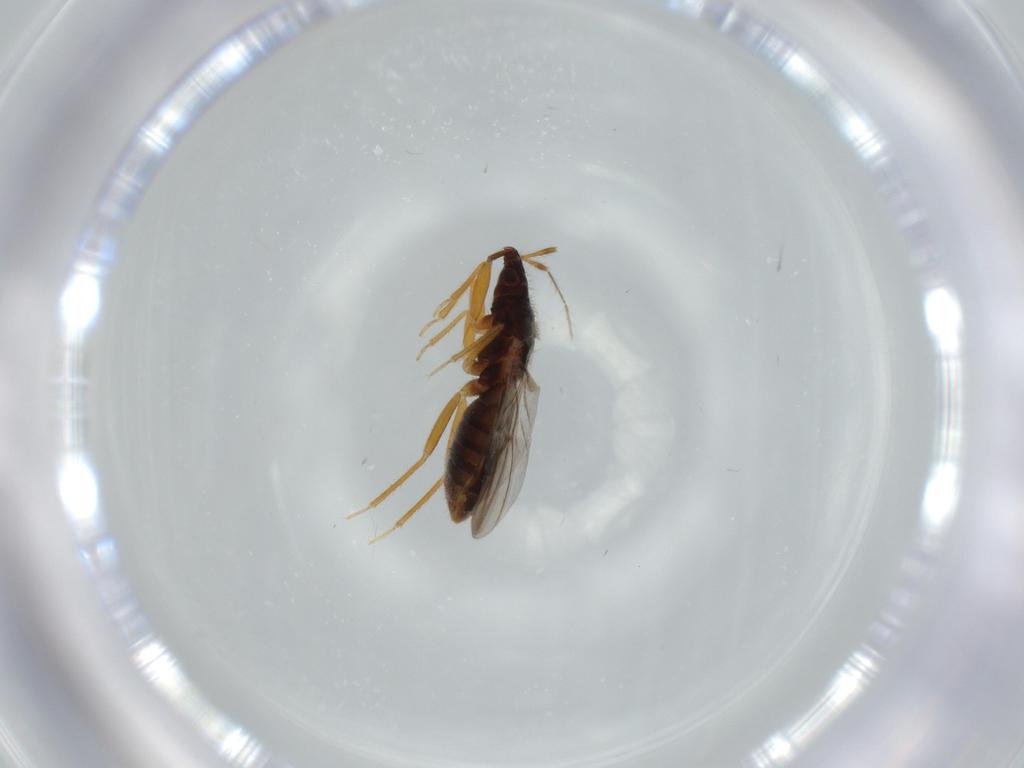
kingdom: Animalia
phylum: Arthropoda
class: Insecta
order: Hemiptera
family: Lasiochilidae
